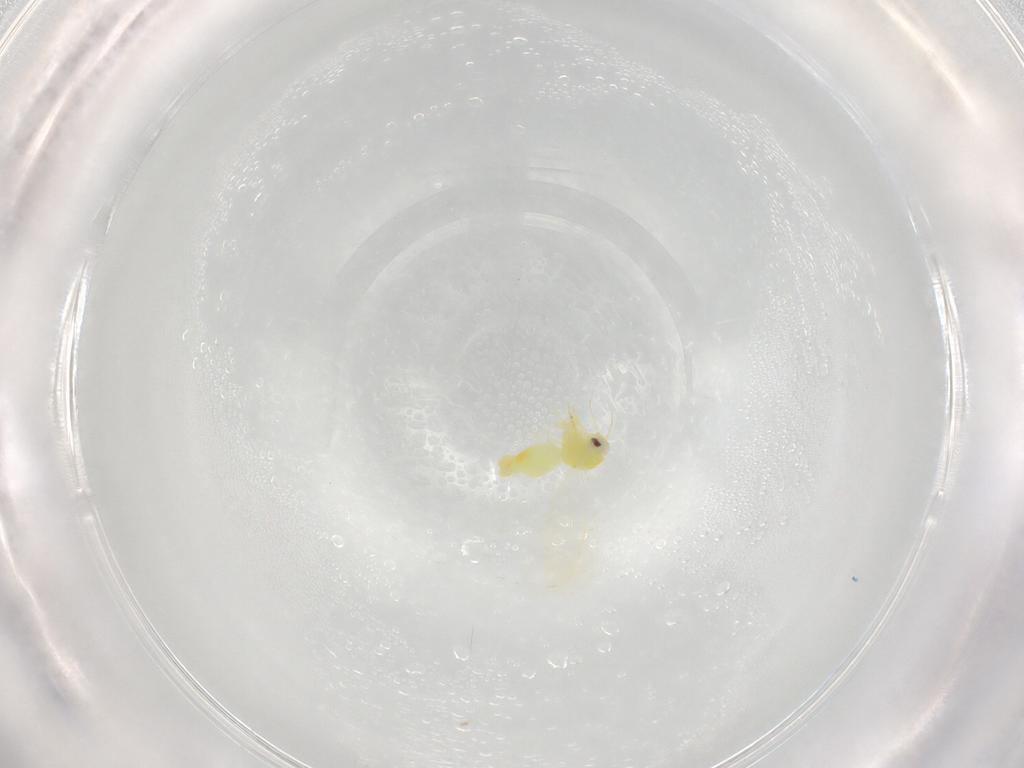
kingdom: Animalia
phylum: Arthropoda
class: Insecta
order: Hemiptera
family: Aleyrodidae
